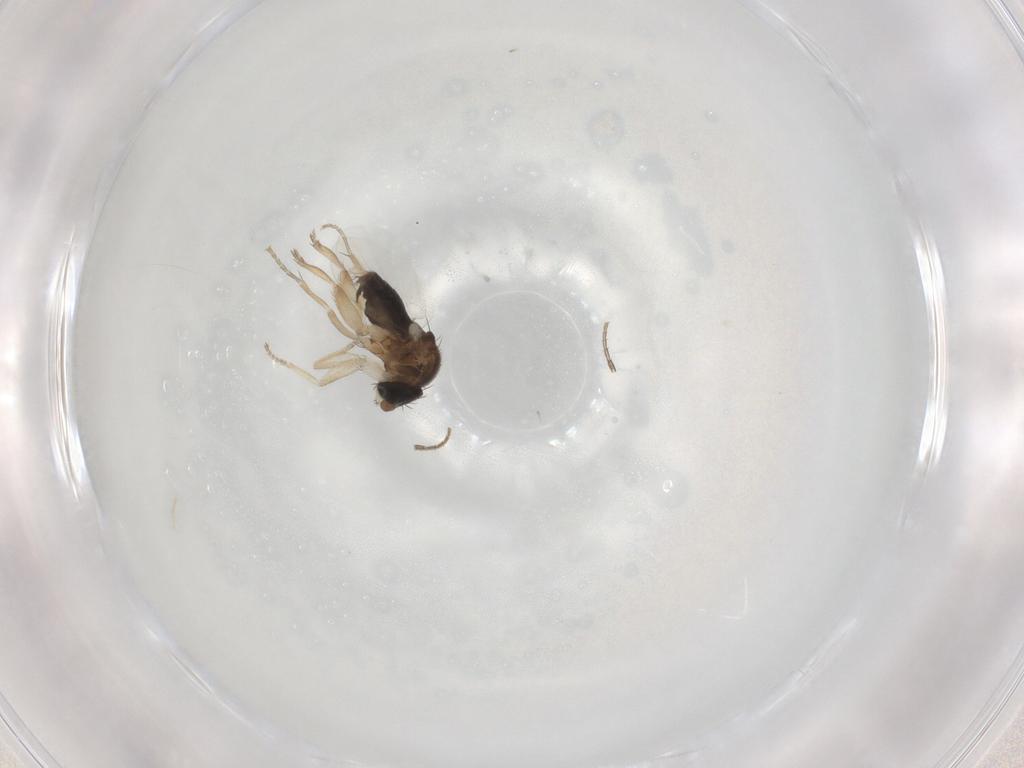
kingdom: Animalia
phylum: Arthropoda
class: Insecta
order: Diptera
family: Phoridae
